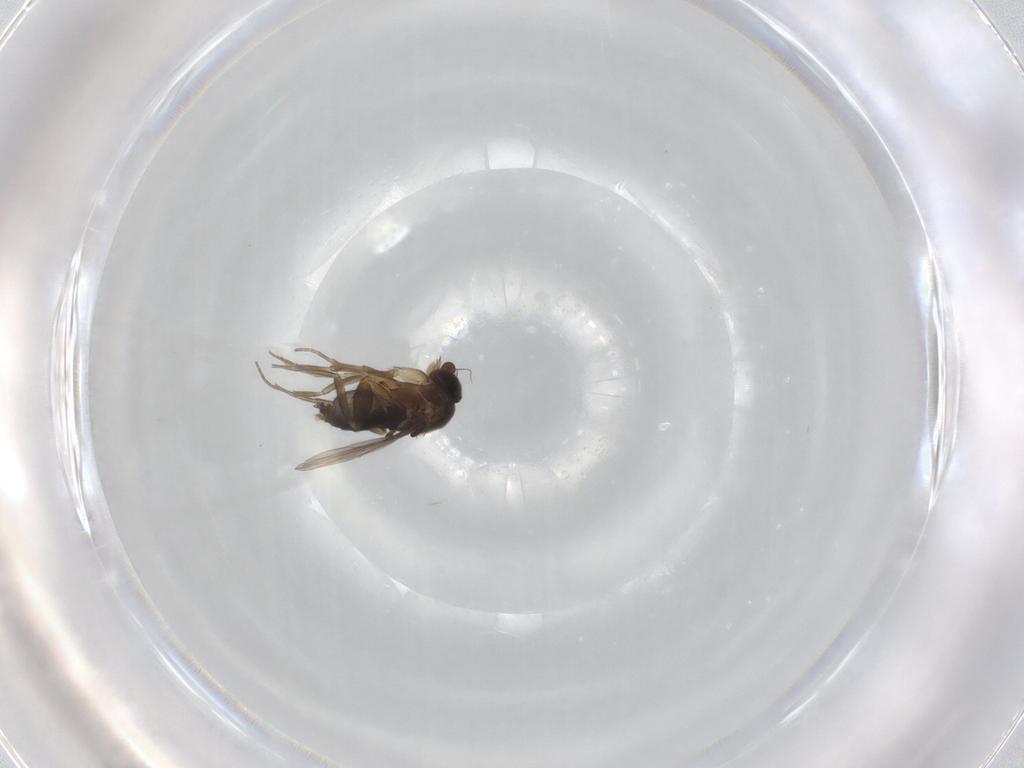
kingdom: Animalia
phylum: Arthropoda
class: Insecta
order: Diptera
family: Phoridae
